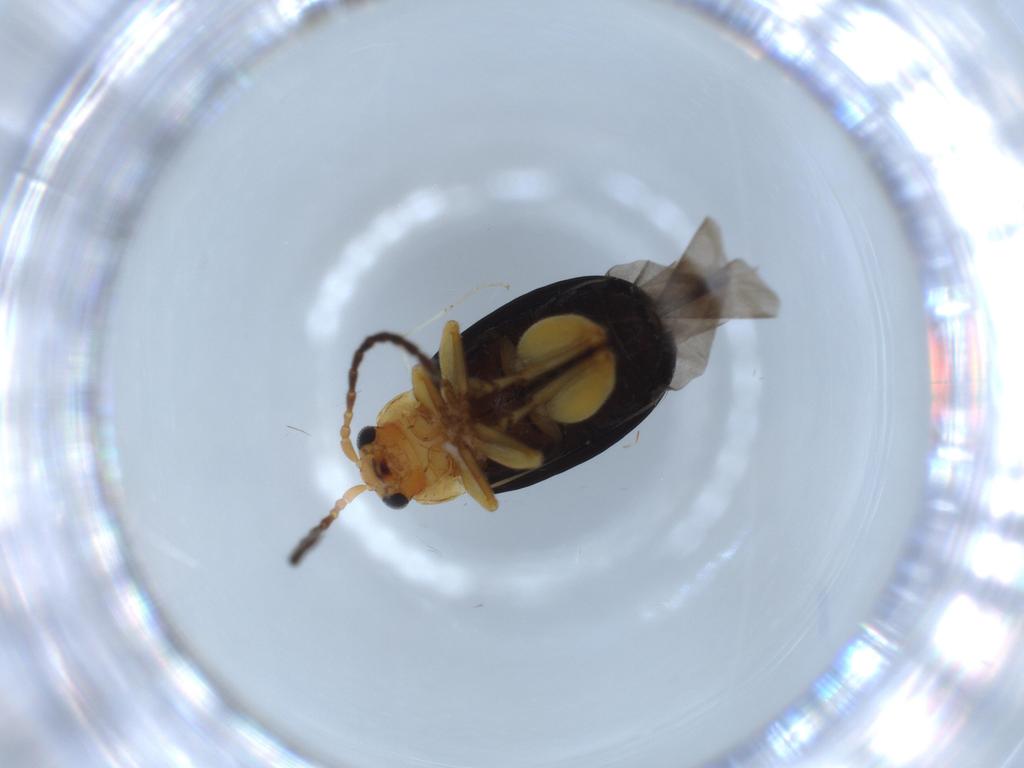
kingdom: Animalia
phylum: Arthropoda
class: Insecta
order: Coleoptera
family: Chrysomelidae
